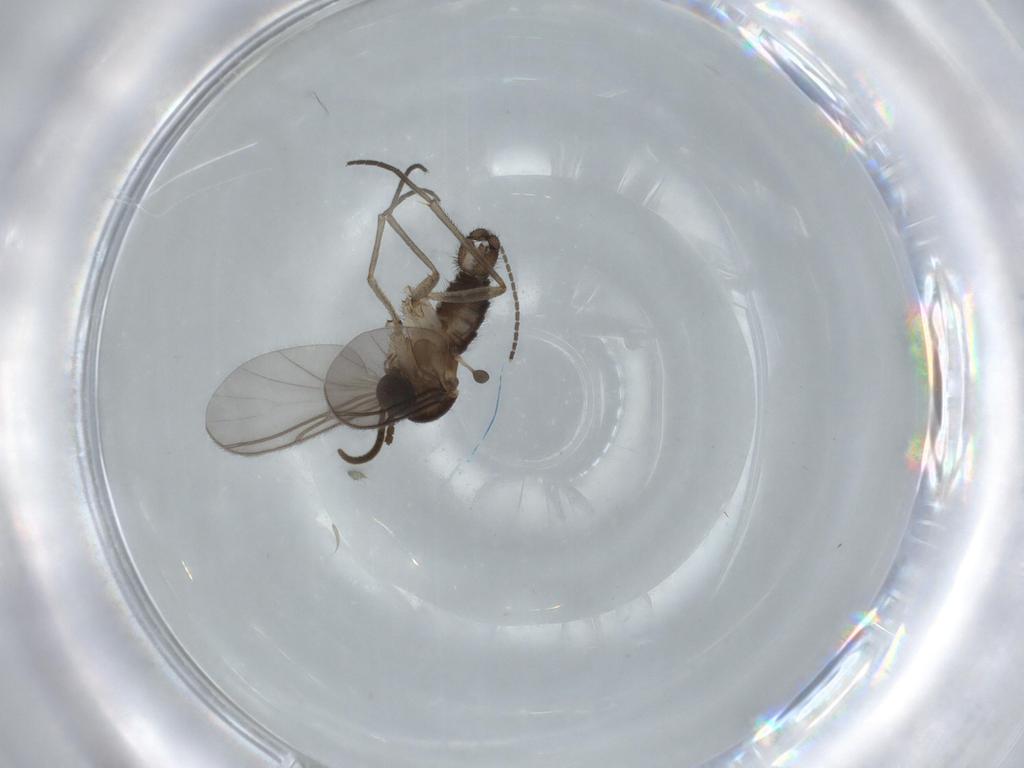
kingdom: Animalia
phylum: Arthropoda
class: Insecta
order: Diptera
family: Sciaridae
